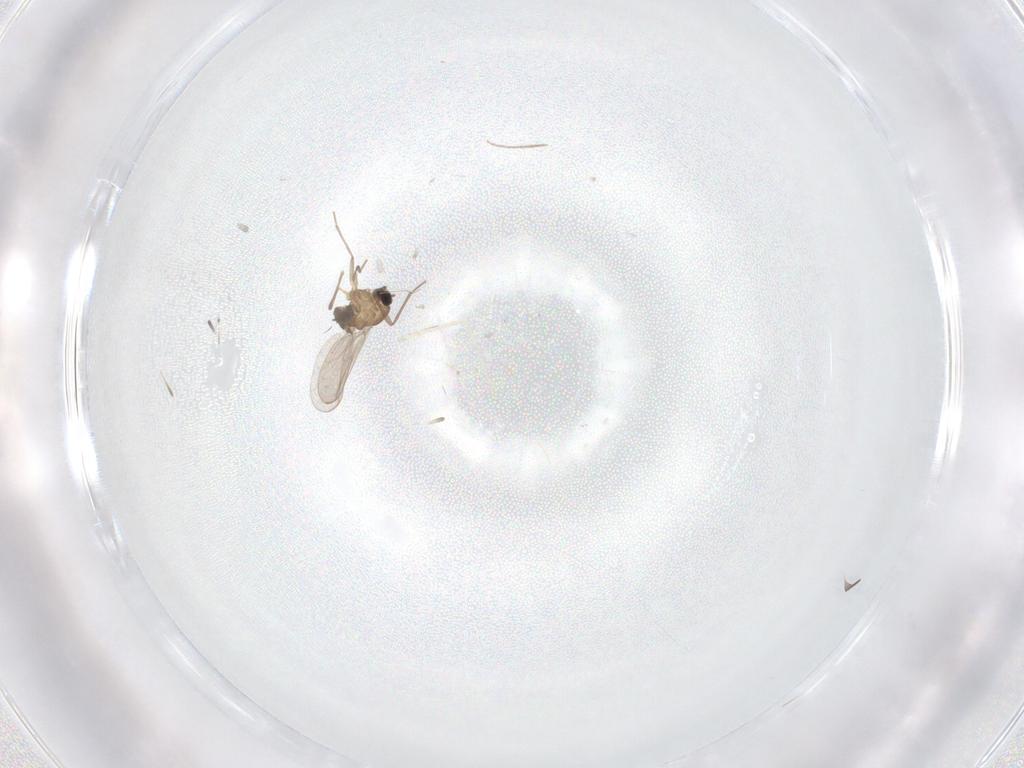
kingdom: Animalia
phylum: Arthropoda
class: Insecta
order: Diptera
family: Cecidomyiidae
